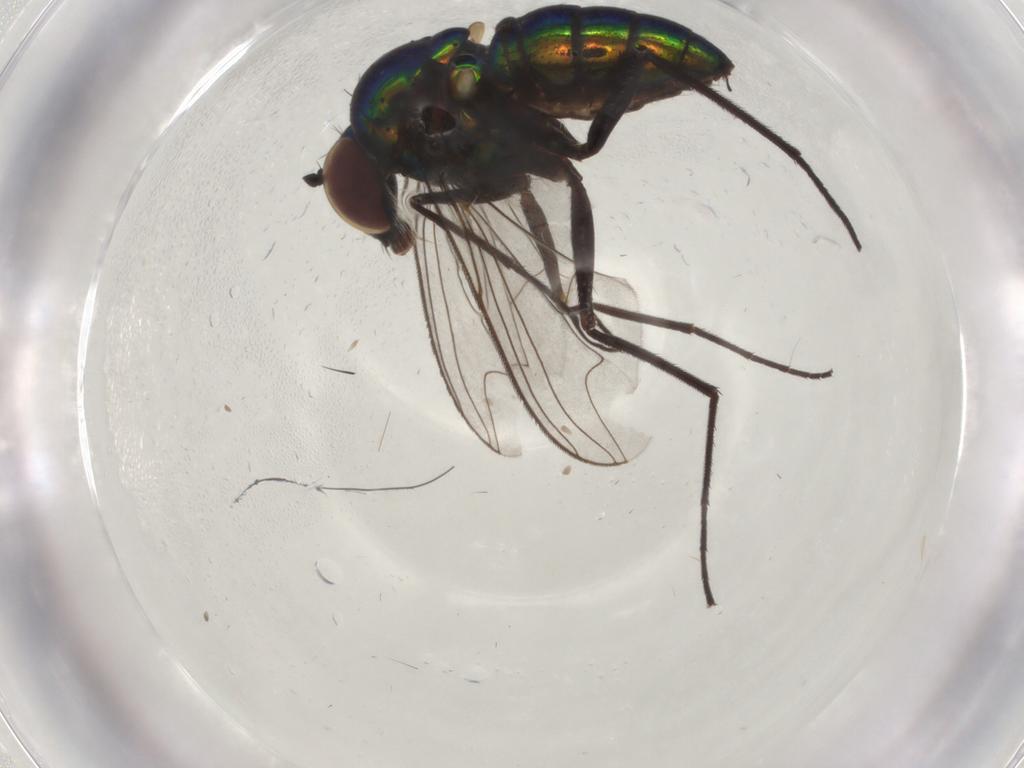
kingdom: Animalia
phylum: Arthropoda
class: Insecta
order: Diptera
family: Dolichopodidae
